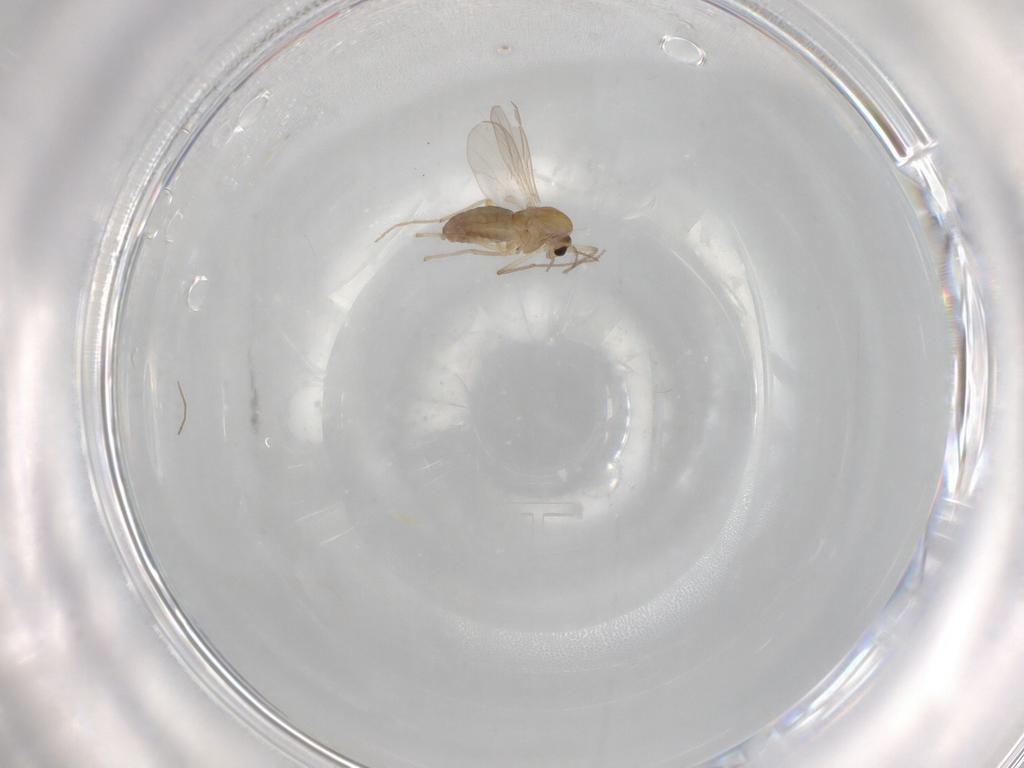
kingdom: Animalia
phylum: Arthropoda
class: Insecta
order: Diptera
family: Chironomidae
